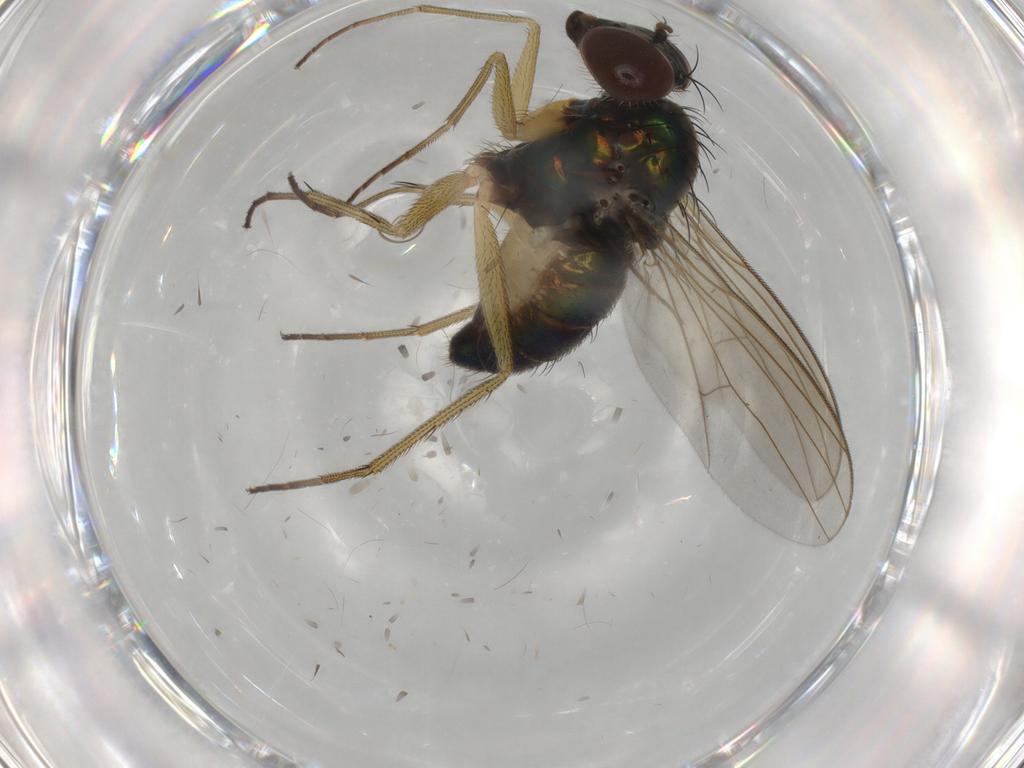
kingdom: Animalia
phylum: Arthropoda
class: Insecta
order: Diptera
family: Dolichopodidae
